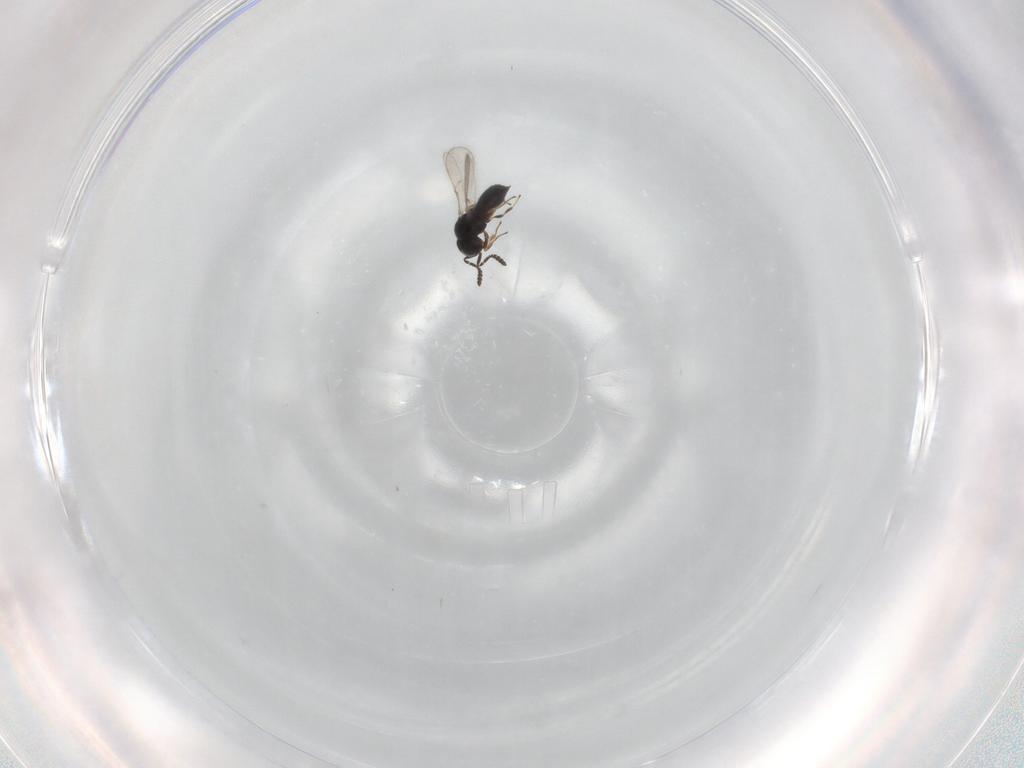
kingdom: Animalia
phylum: Arthropoda
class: Insecta
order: Hymenoptera
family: Scelionidae
